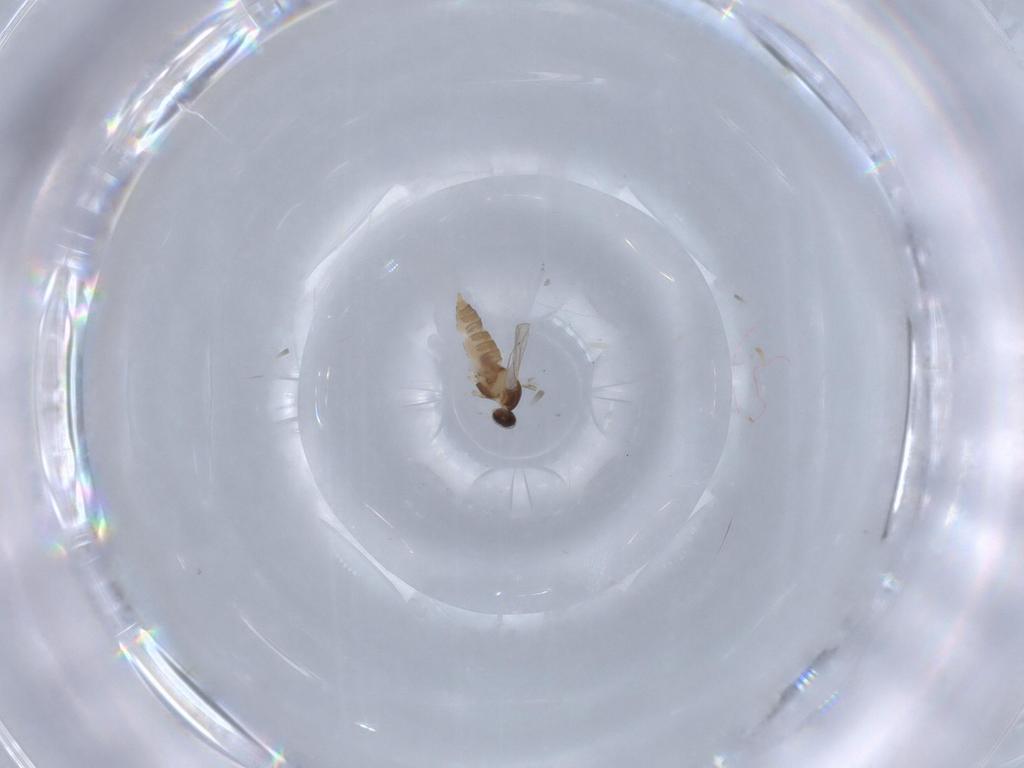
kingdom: Animalia
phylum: Arthropoda
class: Insecta
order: Diptera
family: Cecidomyiidae
